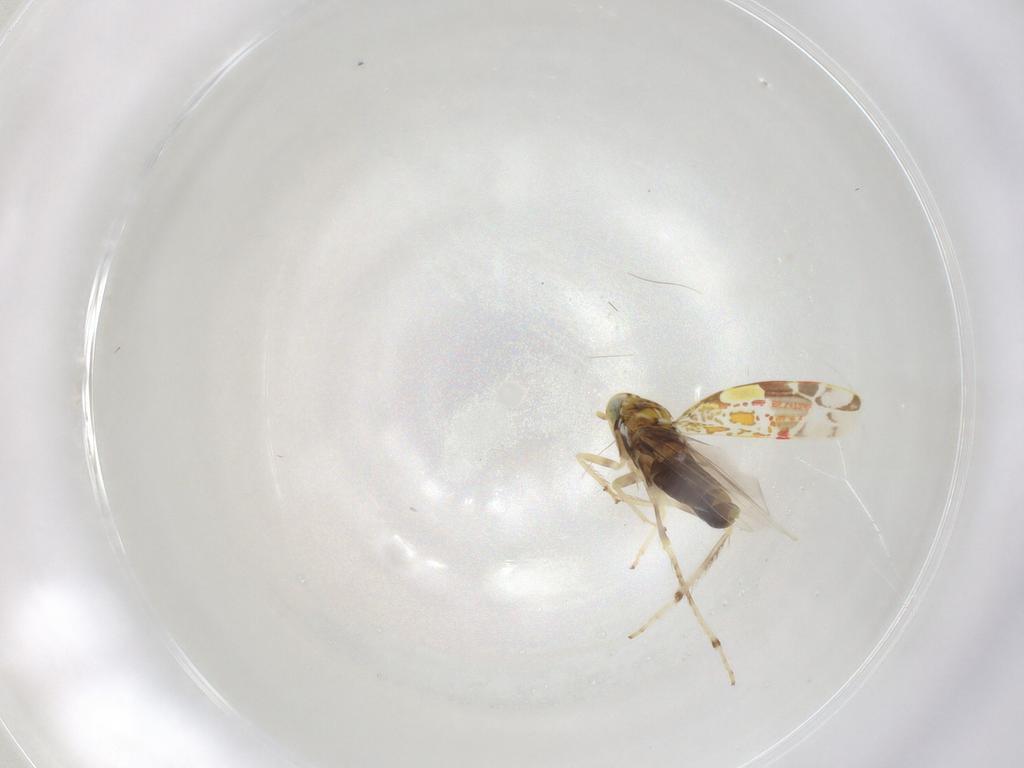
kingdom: Animalia
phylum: Arthropoda
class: Insecta
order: Hemiptera
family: Cicadellidae
